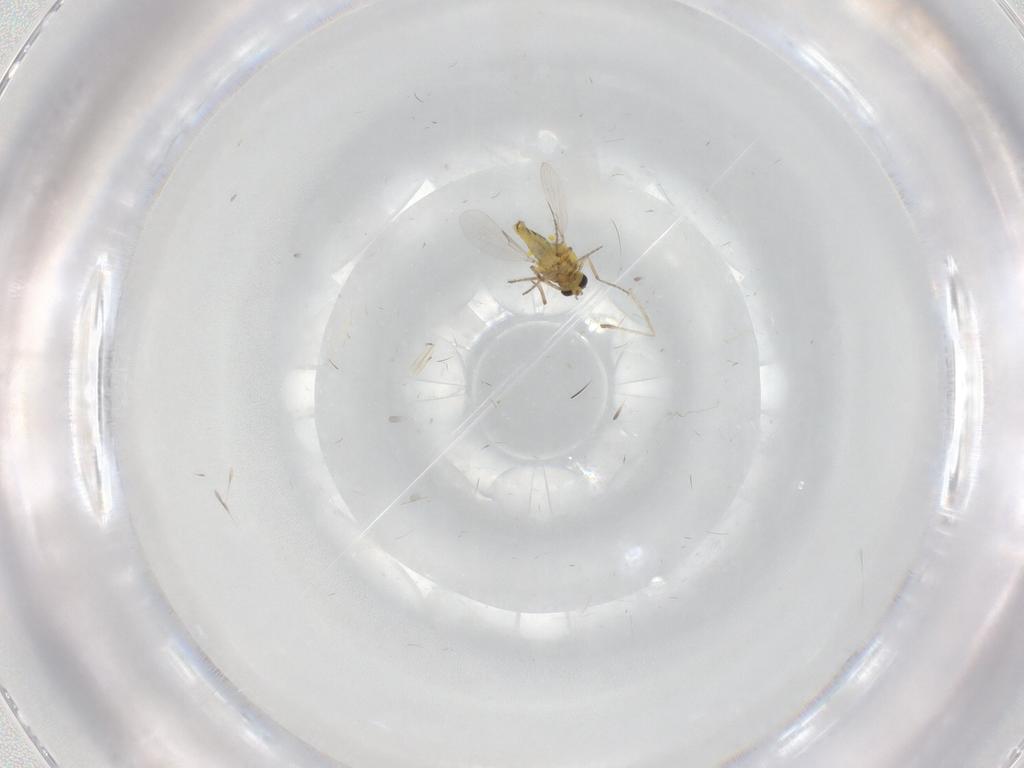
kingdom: Animalia
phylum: Arthropoda
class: Insecta
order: Diptera
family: Ceratopogonidae
